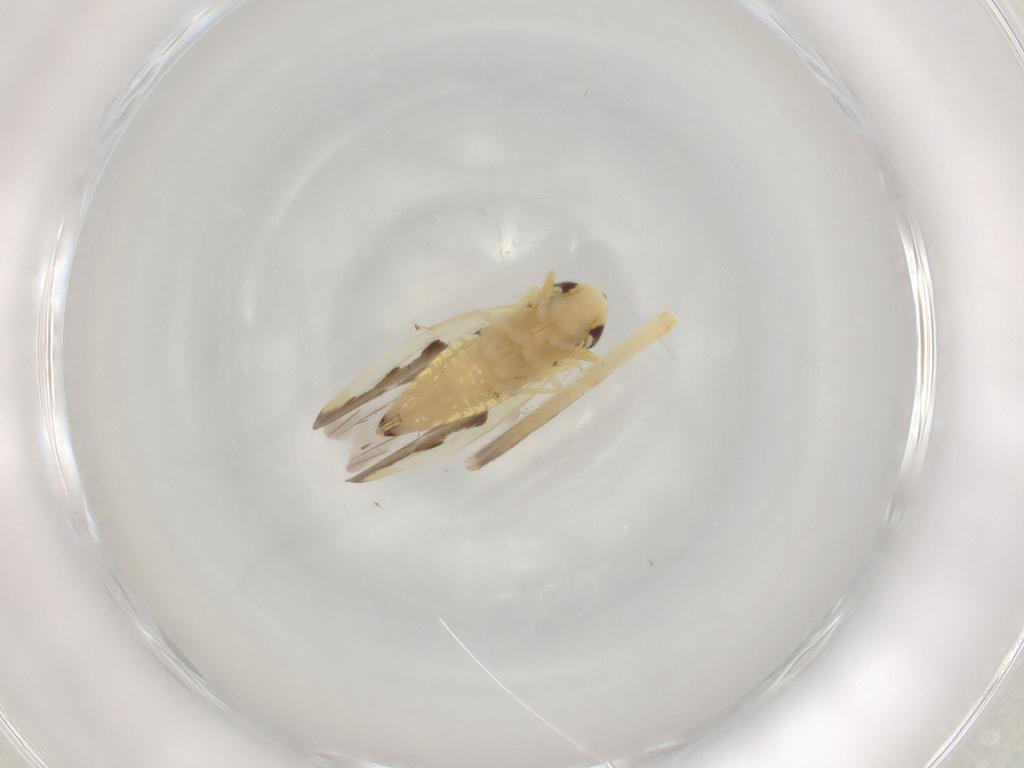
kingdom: Animalia
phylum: Arthropoda
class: Insecta
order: Hemiptera
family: Cicadellidae
